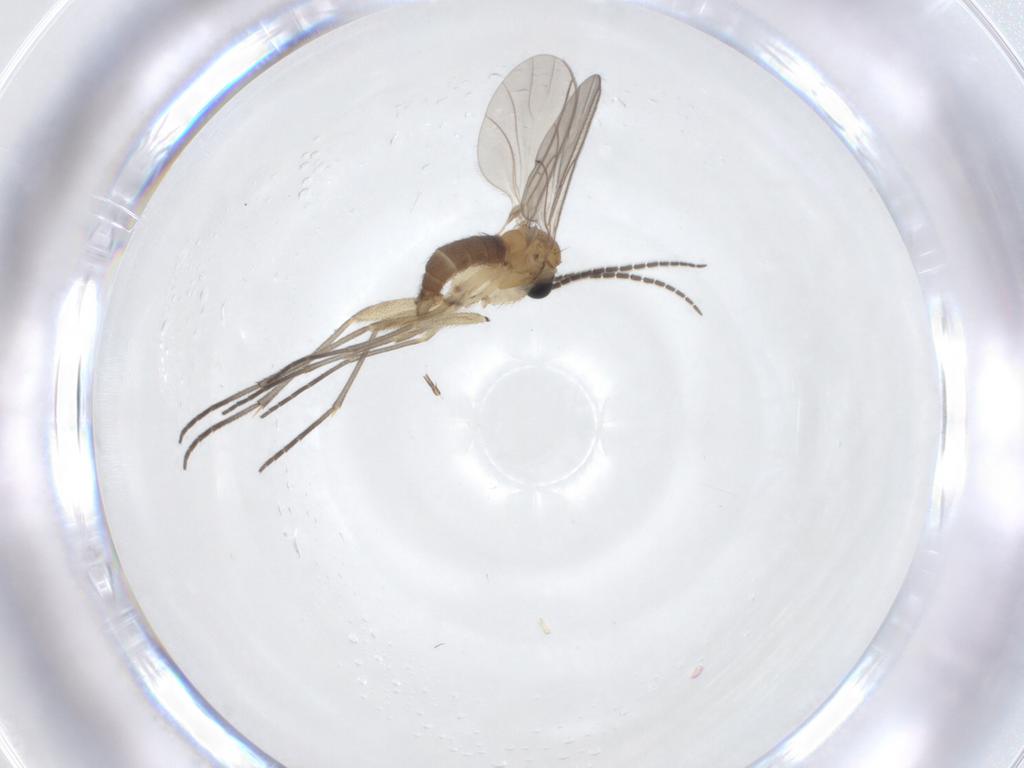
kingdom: Animalia
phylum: Arthropoda
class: Insecta
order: Diptera
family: Sciaridae
